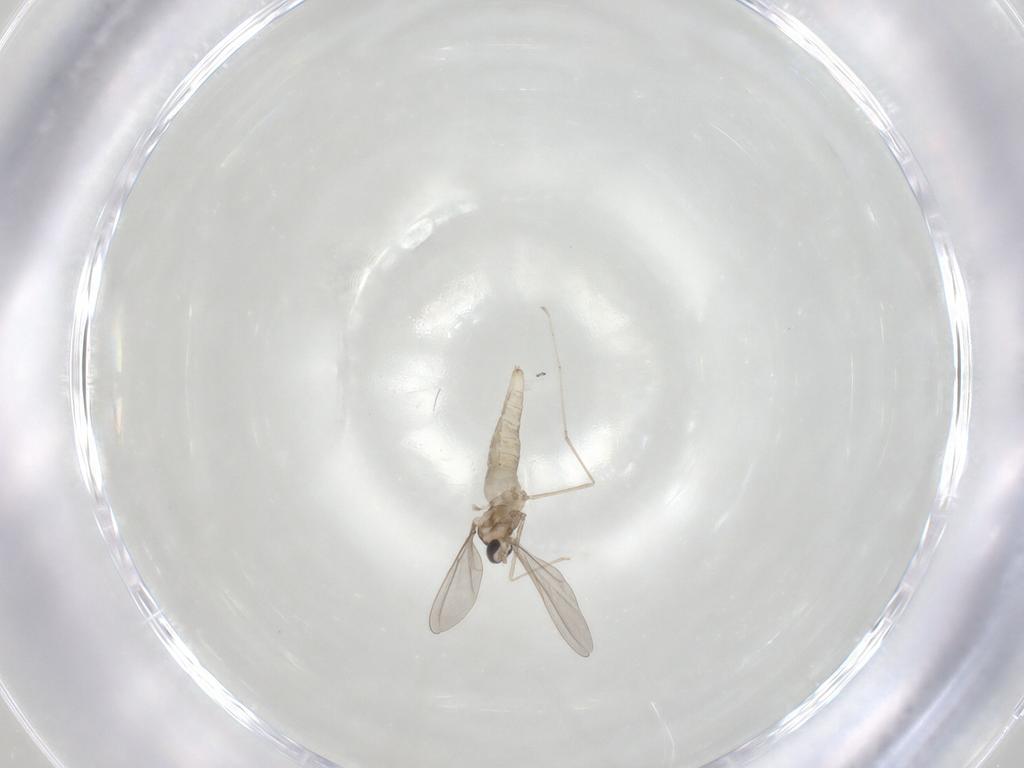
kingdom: Animalia
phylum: Arthropoda
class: Insecta
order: Diptera
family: Cecidomyiidae
